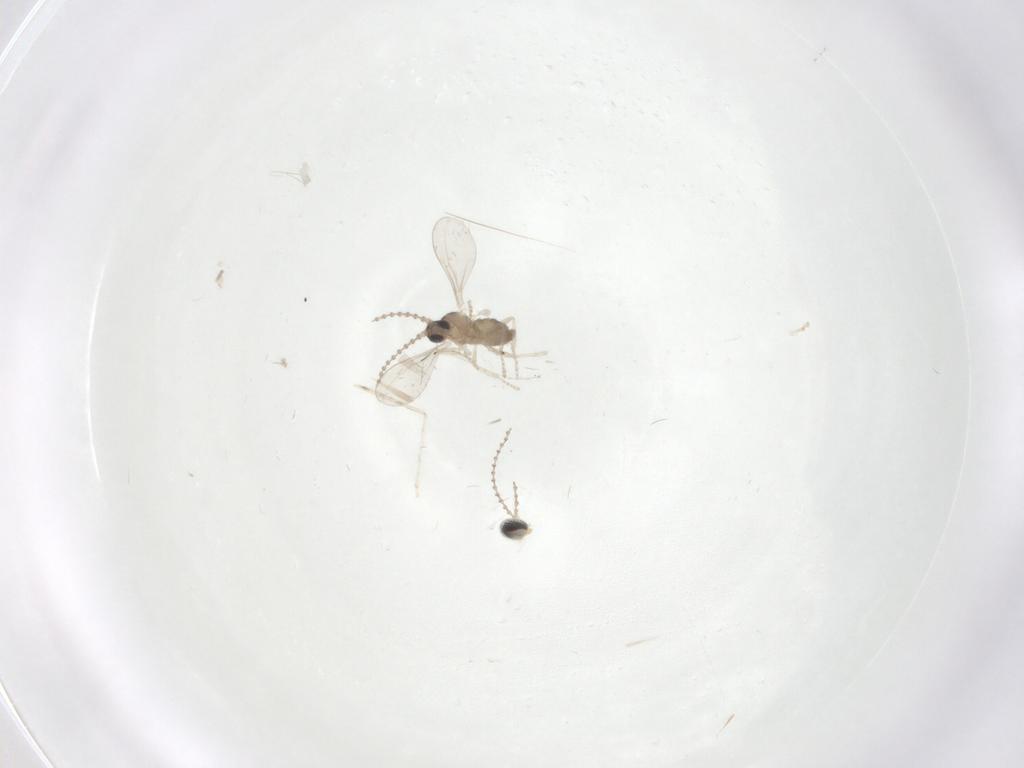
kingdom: Animalia
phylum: Arthropoda
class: Insecta
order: Diptera
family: Cecidomyiidae
